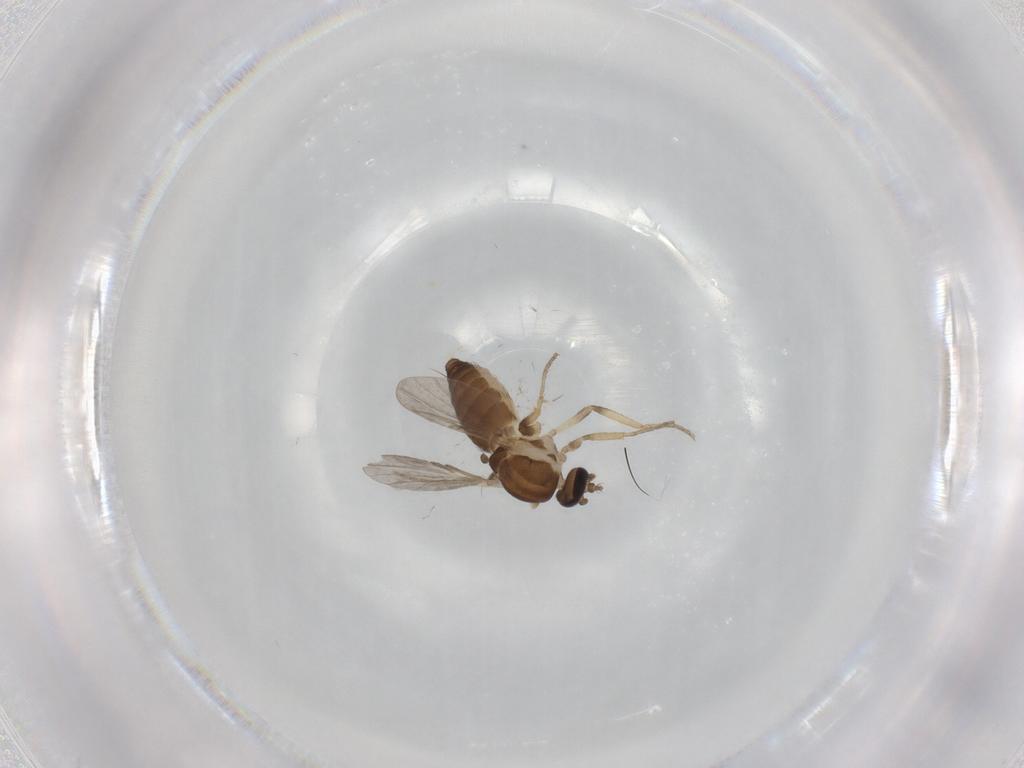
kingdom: Animalia
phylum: Arthropoda
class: Insecta
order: Diptera
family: Ceratopogonidae
